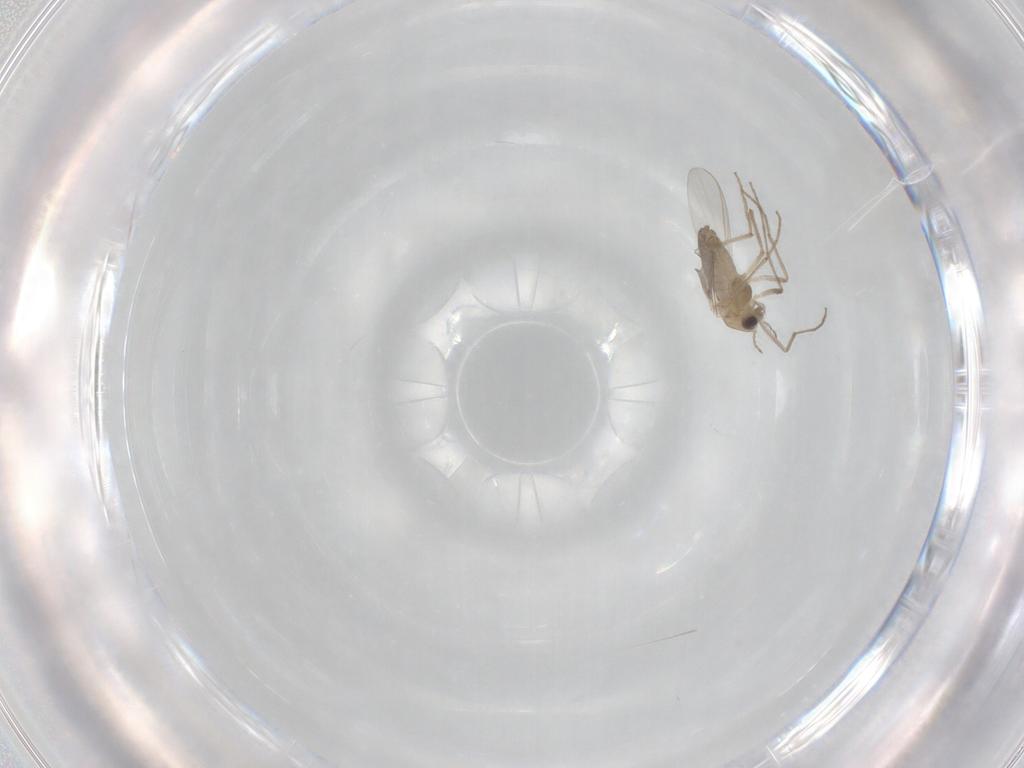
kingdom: Animalia
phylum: Arthropoda
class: Insecta
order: Diptera
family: Chironomidae
